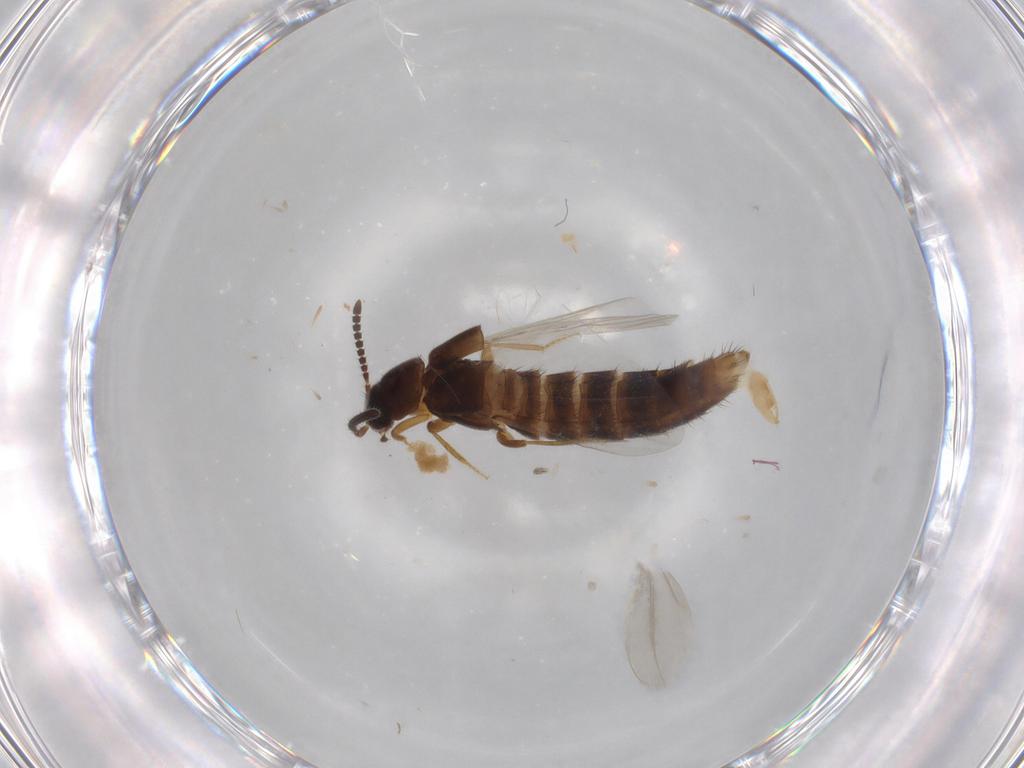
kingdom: Animalia
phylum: Arthropoda
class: Insecta
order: Coleoptera
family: Staphylinidae
